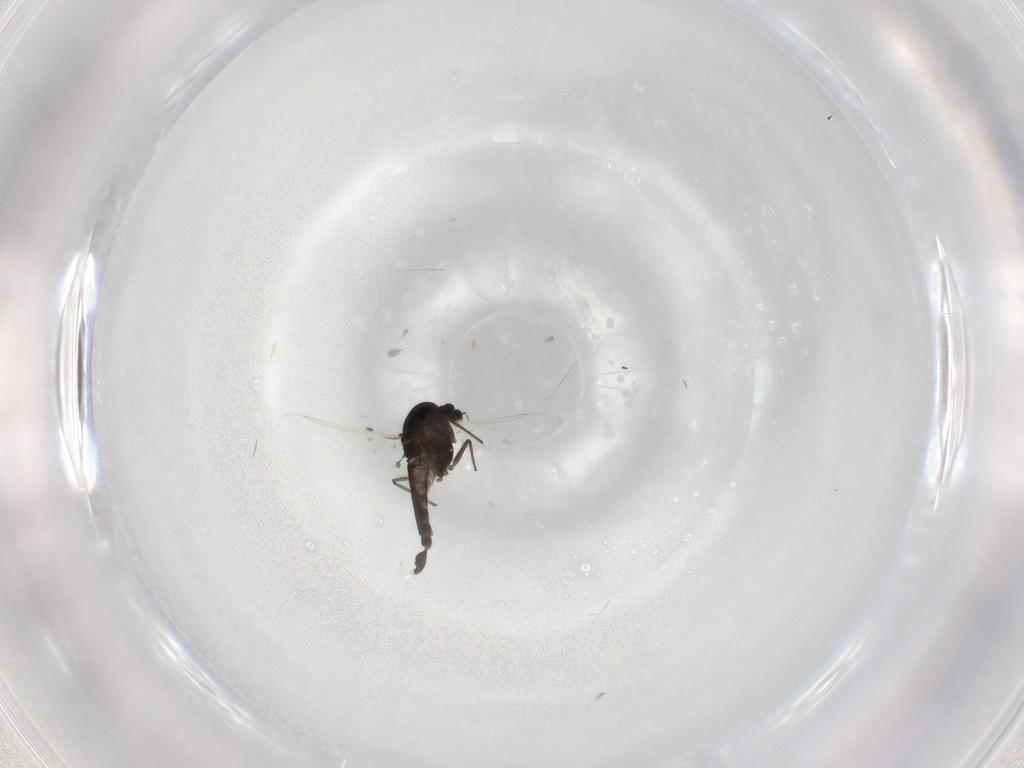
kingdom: Animalia
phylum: Arthropoda
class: Insecta
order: Diptera
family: Chironomidae
